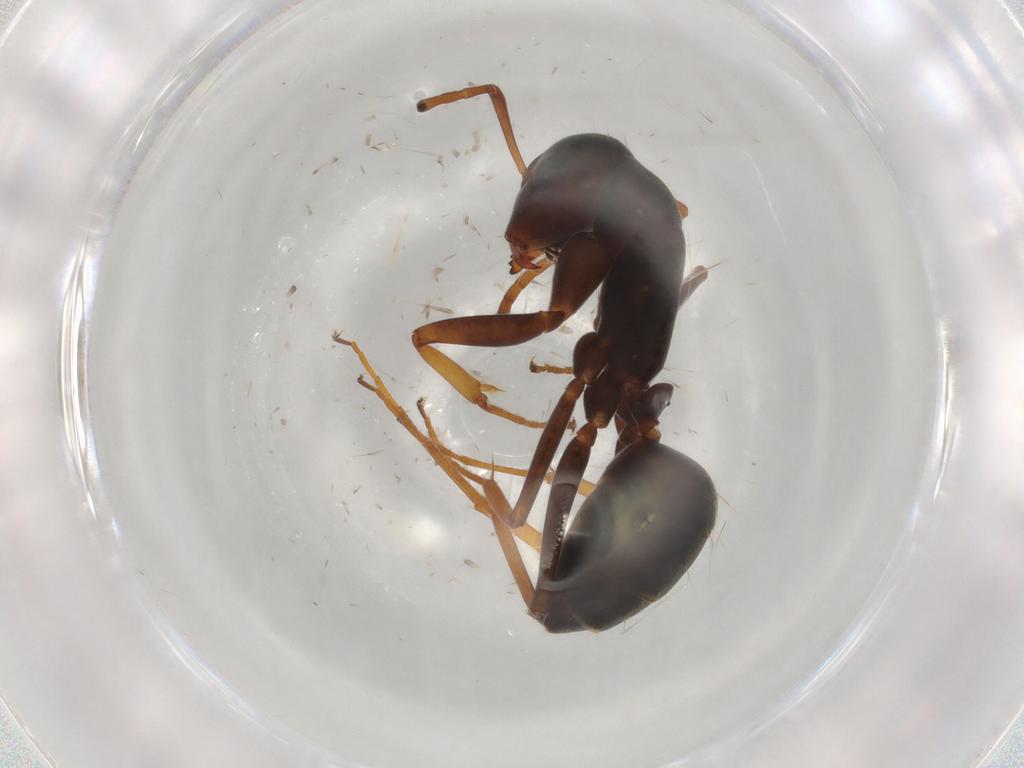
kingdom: Animalia
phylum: Arthropoda
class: Insecta
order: Hymenoptera
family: Formicidae
